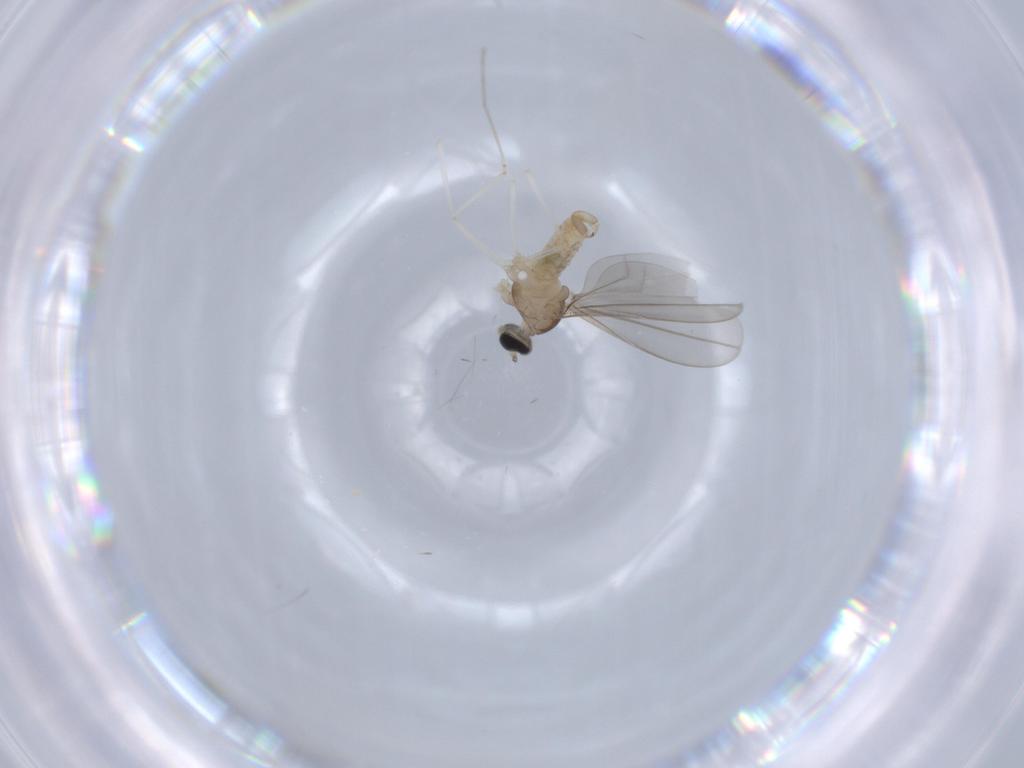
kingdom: Animalia
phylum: Arthropoda
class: Insecta
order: Diptera
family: Cecidomyiidae
